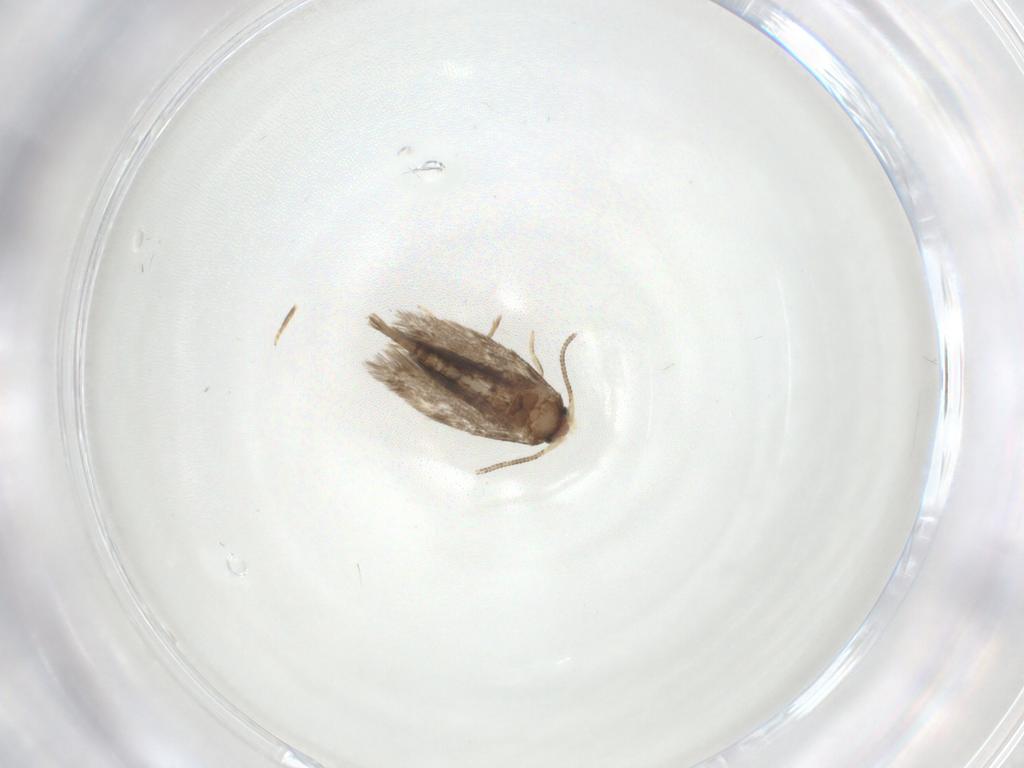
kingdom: Animalia
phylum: Arthropoda
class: Insecta
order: Lepidoptera
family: Nepticulidae
